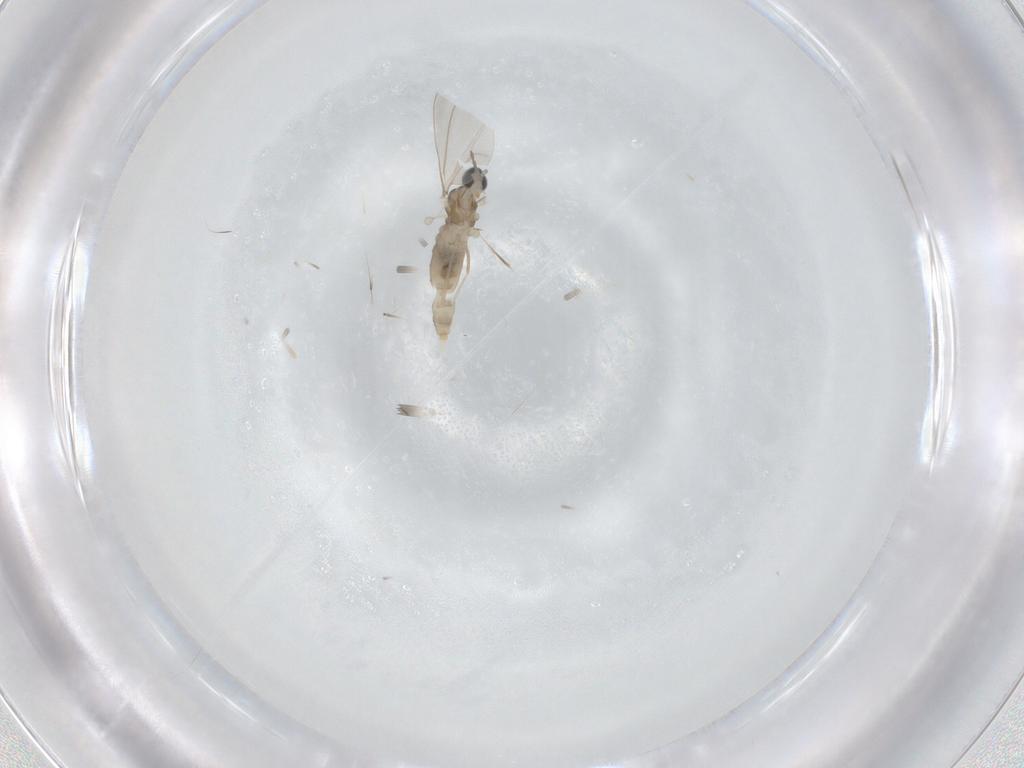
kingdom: Animalia
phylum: Arthropoda
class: Insecta
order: Diptera
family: Cecidomyiidae
